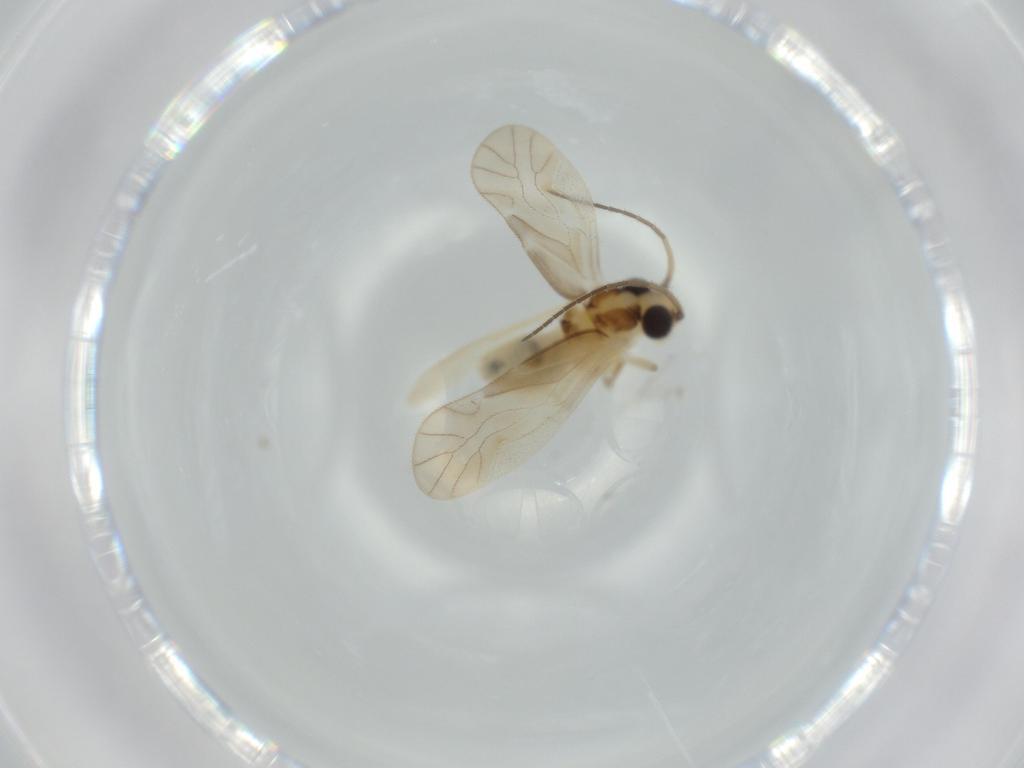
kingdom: Animalia
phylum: Arthropoda
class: Insecta
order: Psocodea
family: Caeciliusidae
